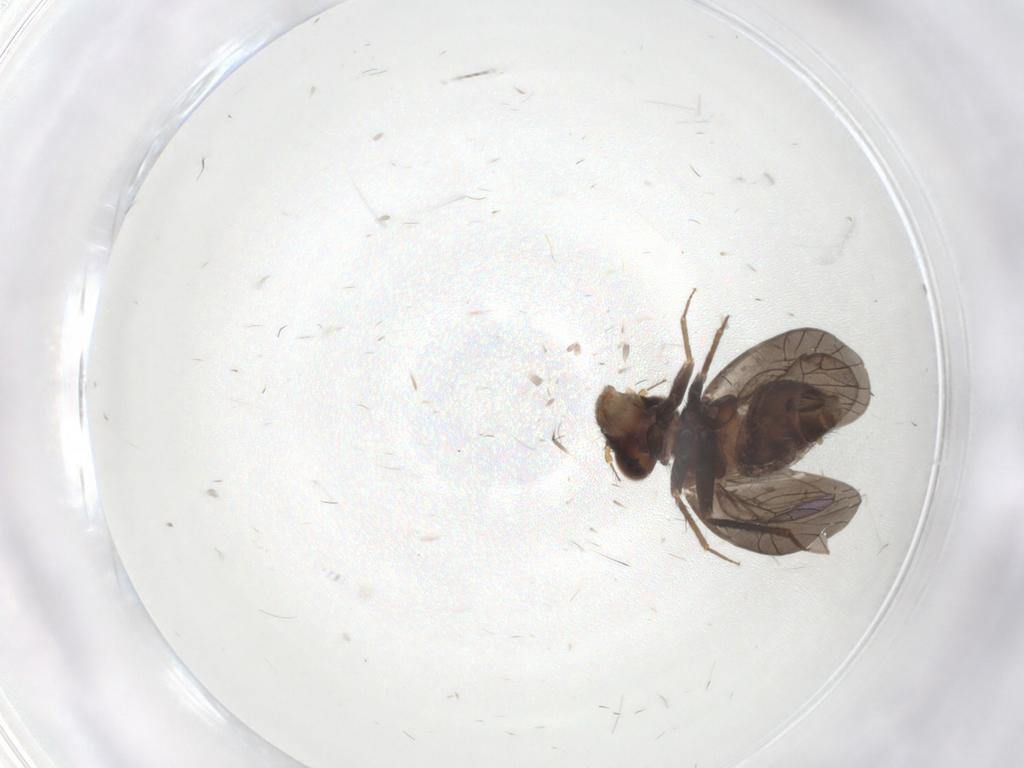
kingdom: Animalia
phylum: Arthropoda
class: Insecta
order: Psocodea
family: Lepidopsocidae
